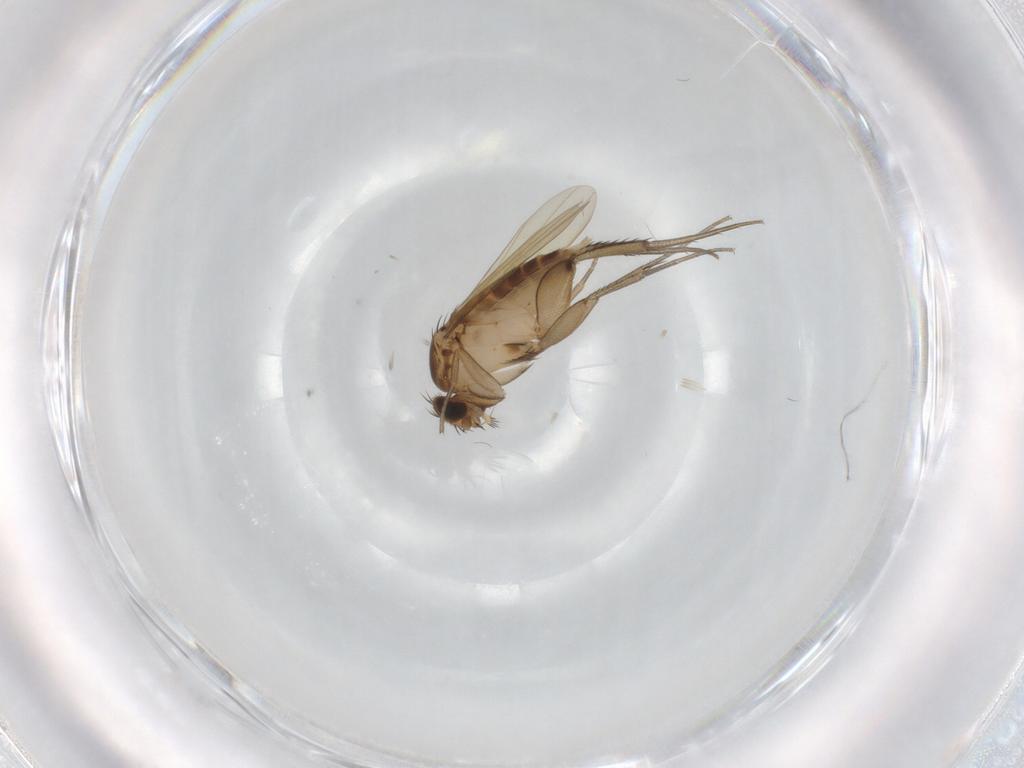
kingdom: Animalia
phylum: Arthropoda
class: Insecta
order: Diptera
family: Phoridae
